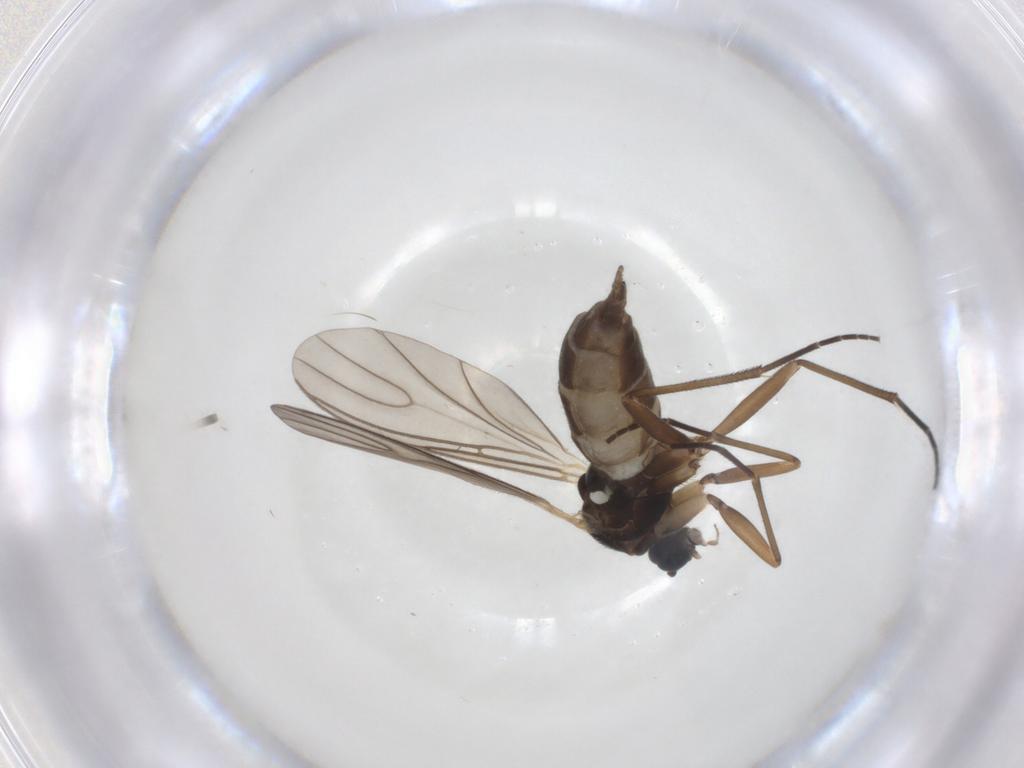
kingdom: Animalia
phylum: Arthropoda
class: Insecta
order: Diptera
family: Sciaridae
